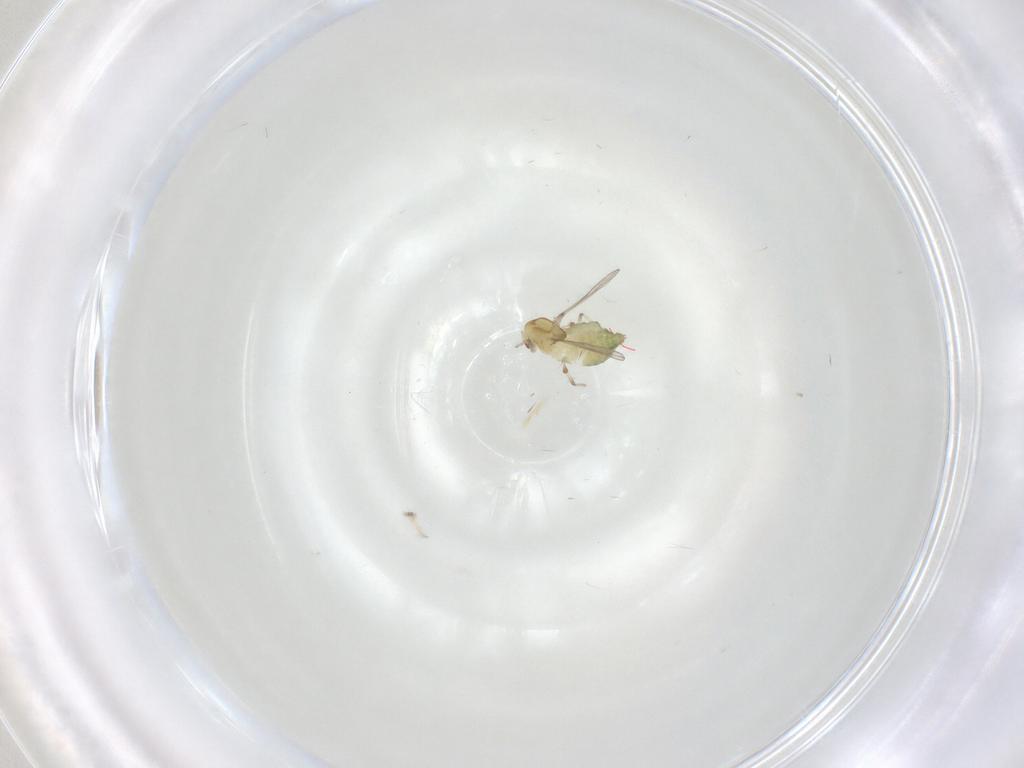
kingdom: Animalia
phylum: Arthropoda
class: Insecta
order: Diptera
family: Chironomidae
